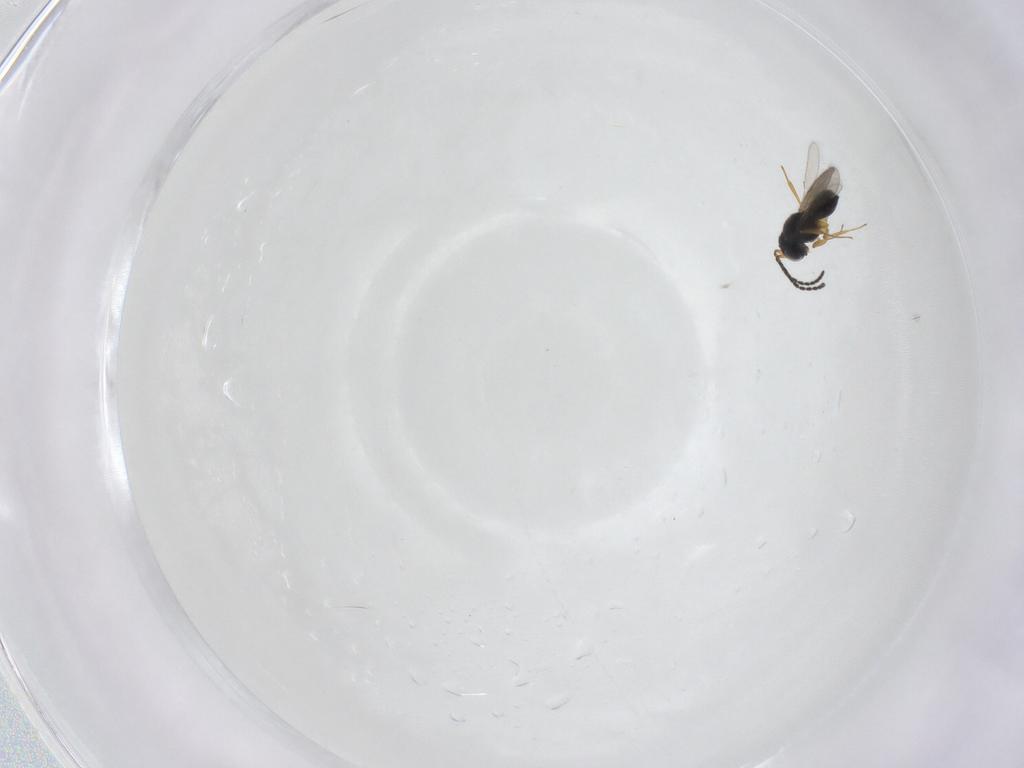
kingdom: Animalia
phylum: Arthropoda
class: Insecta
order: Hymenoptera
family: Scelionidae
